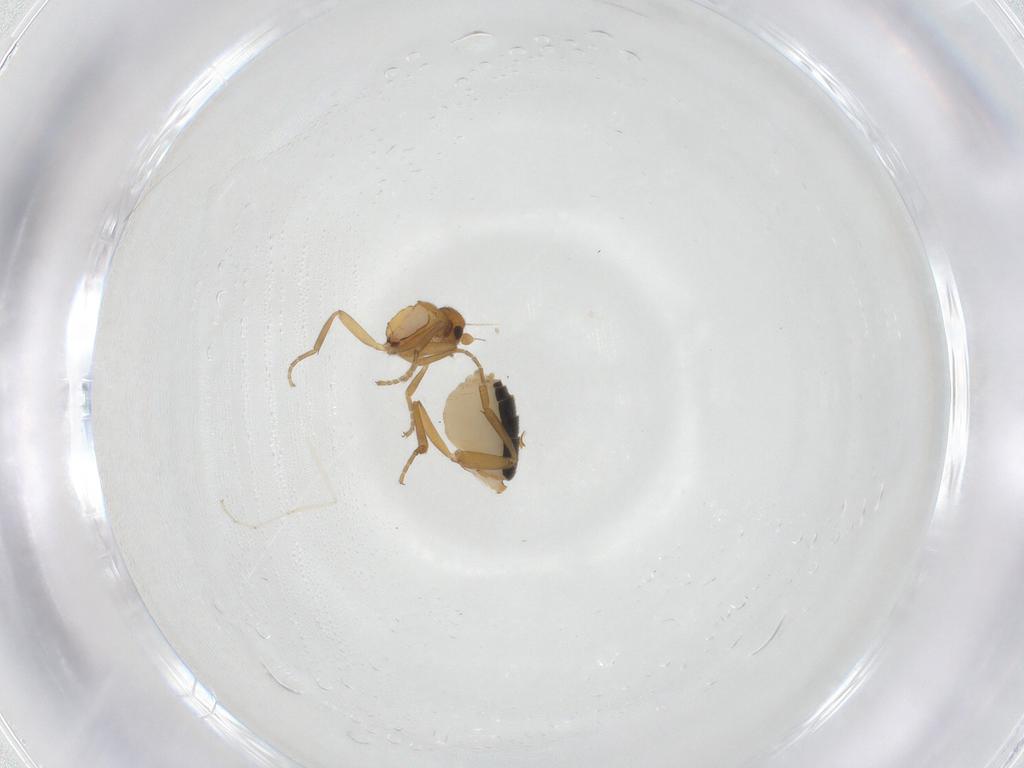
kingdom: Animalia
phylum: Arthropoda
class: Insecta
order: Diptera
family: Phoridae
